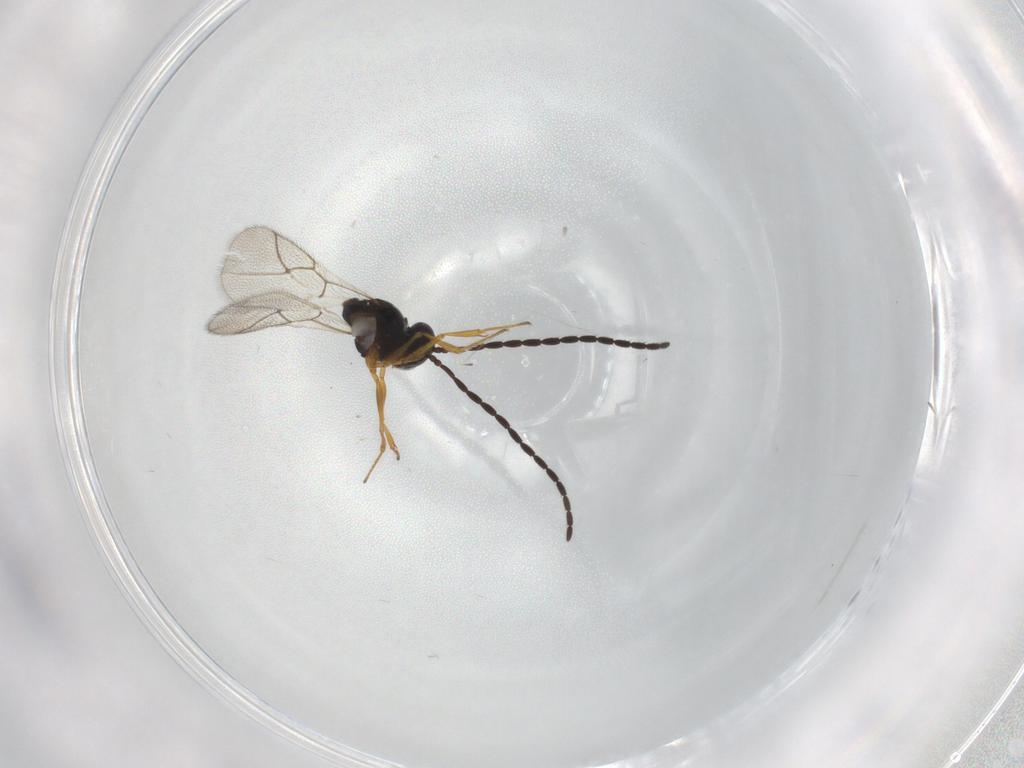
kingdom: Animalia
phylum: Arthropoda
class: Insecta
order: Hymenoptera
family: Figitidae
